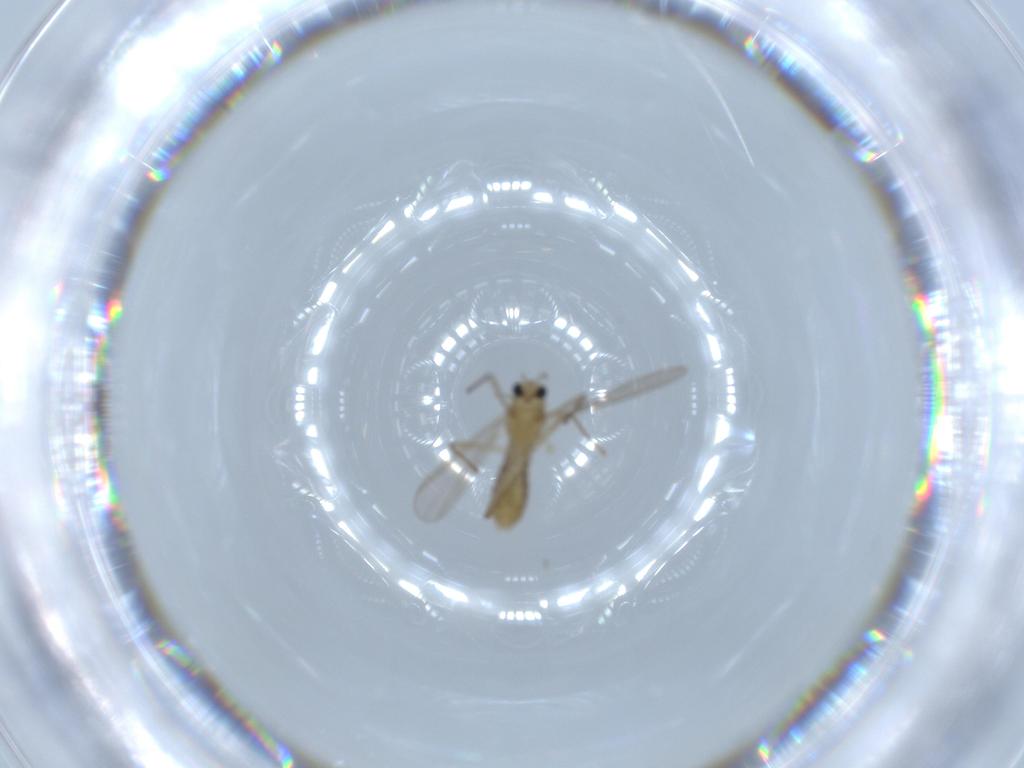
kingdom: Animalia
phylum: Arthropoda
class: Insecta
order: Diptera
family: Chironomidae
